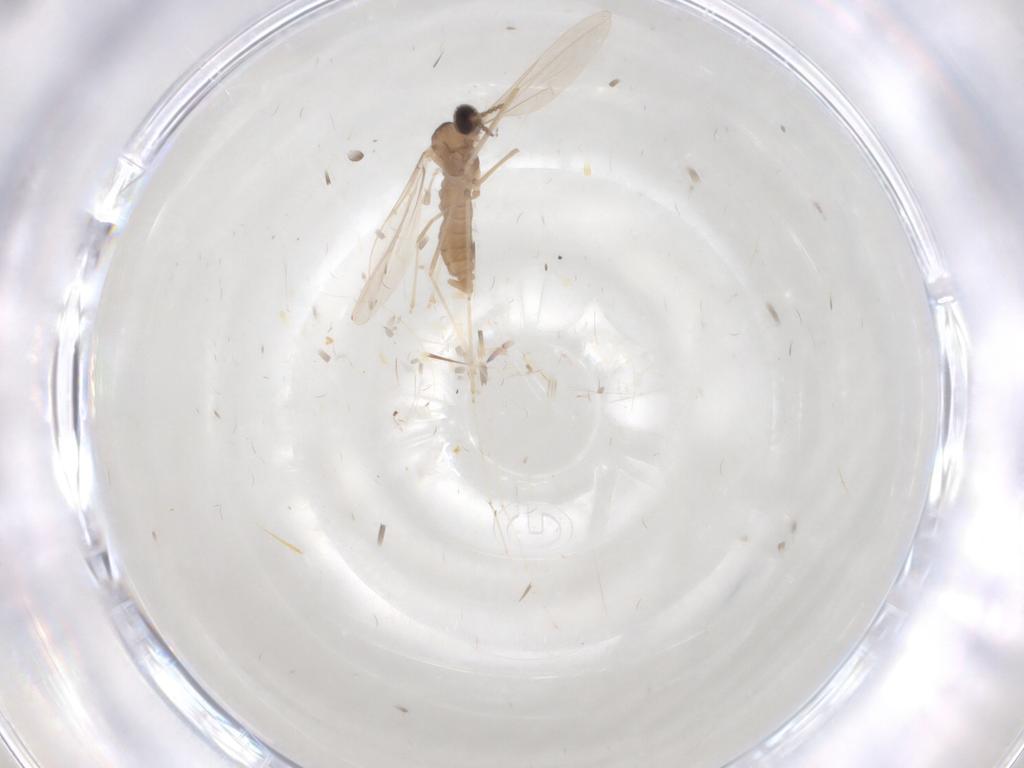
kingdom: Animalia
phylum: Arthropoda
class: Insecta
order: Diptera
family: Cecidomyiidae
